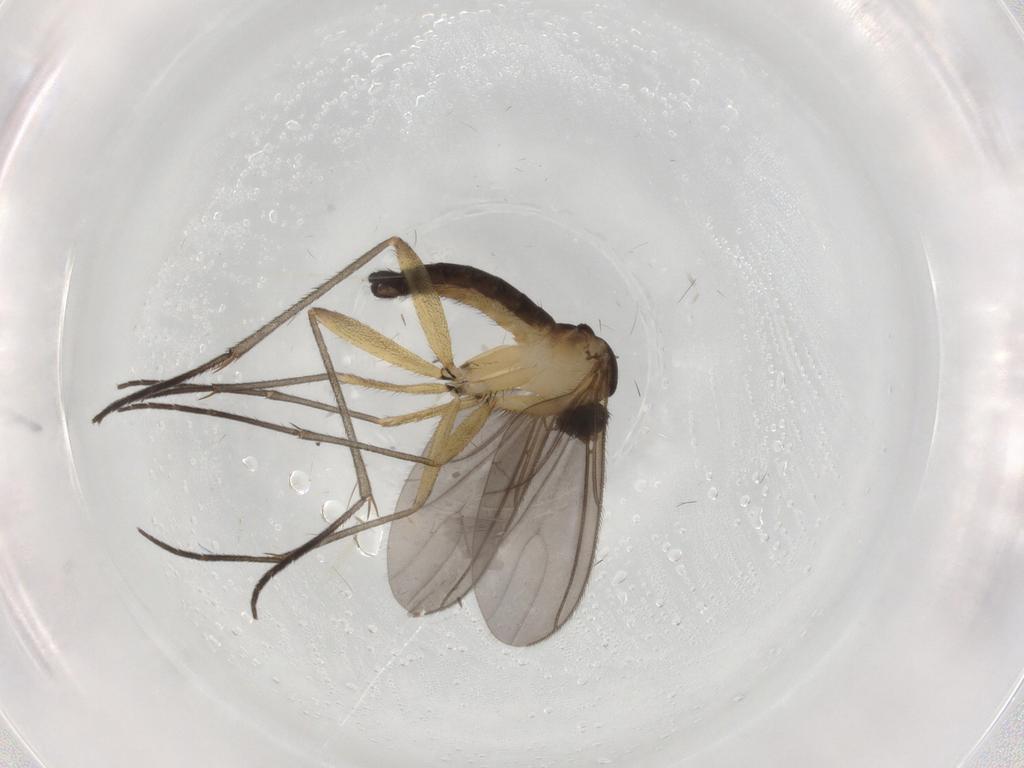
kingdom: Animalia
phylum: Arthropoda
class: Insecta
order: Diptera
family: Sciaridae
